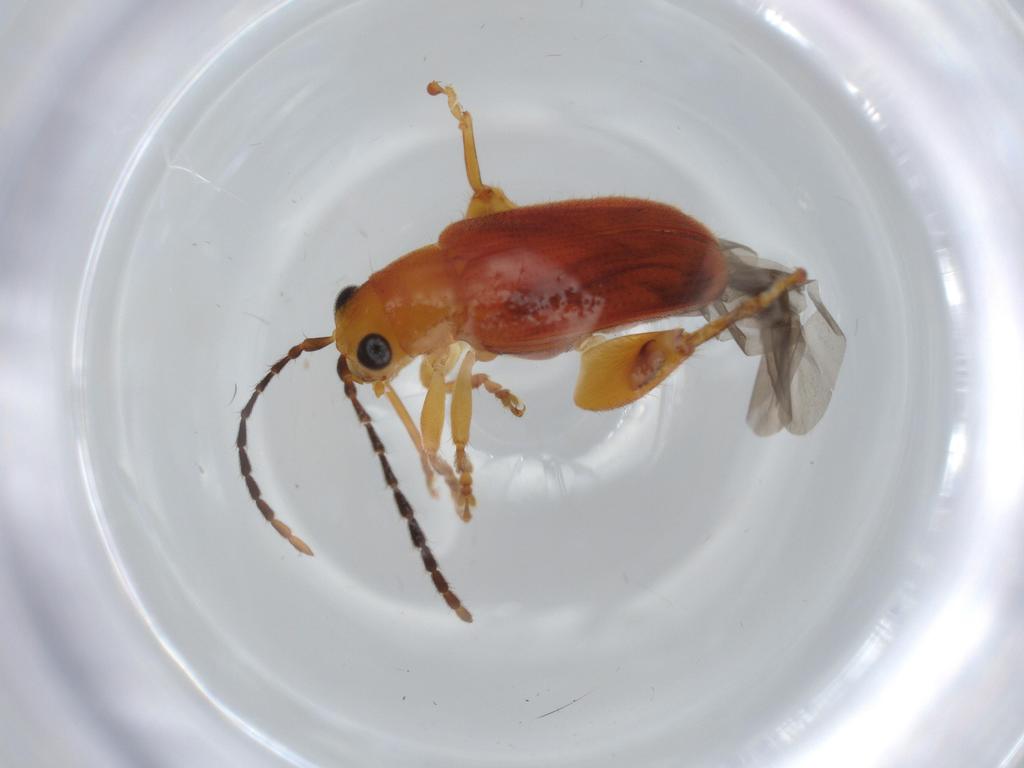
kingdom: Animalia
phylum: Arthropoda
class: Insecta
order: Coleoptera
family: Chrysomelidae
